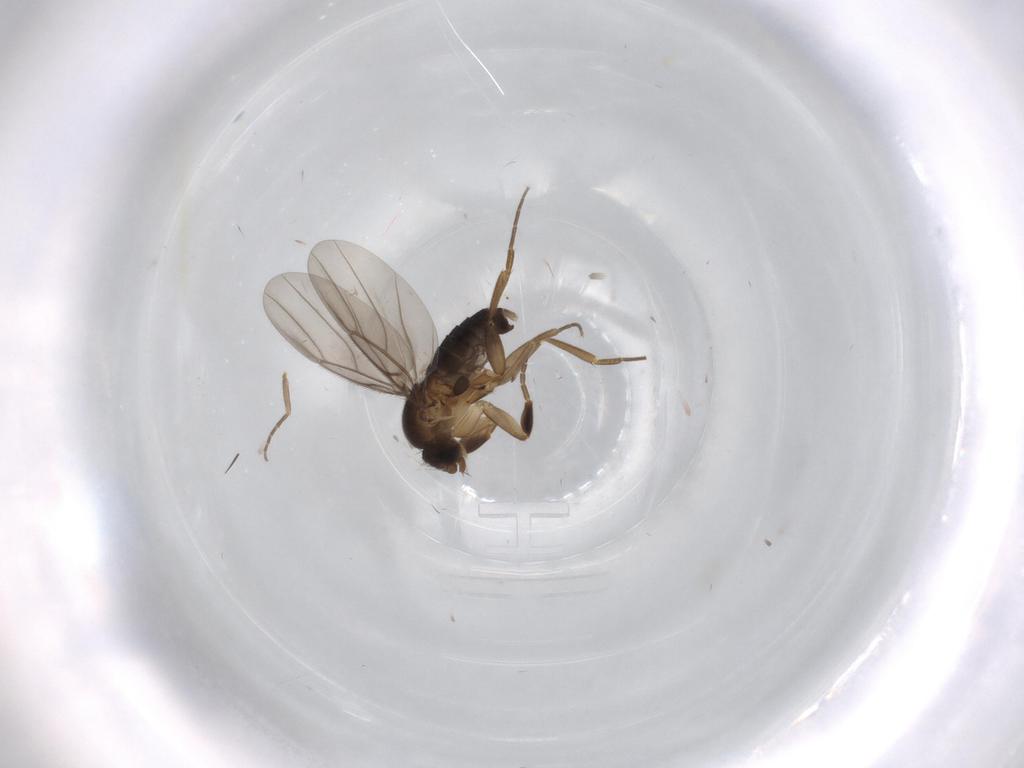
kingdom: Animalia
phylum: Arthropoda
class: Insecta
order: Diptera
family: Phoridae
